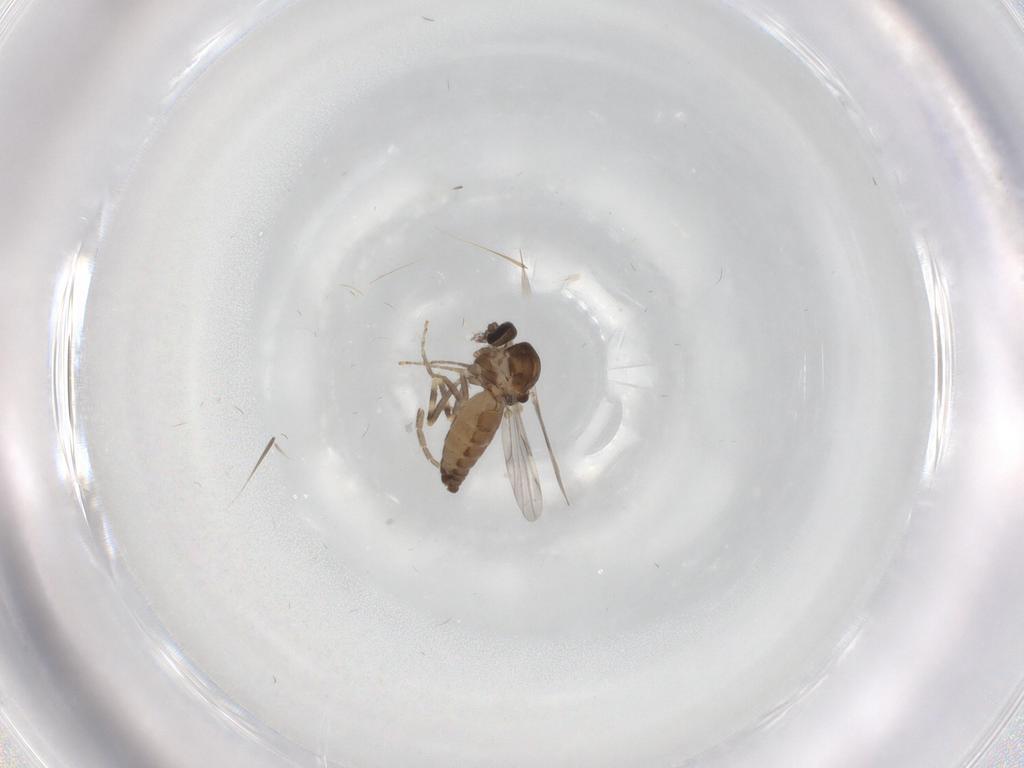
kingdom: Animalia
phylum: Arthropoda
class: Insecta
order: Diptera
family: Ceratopogonidae
